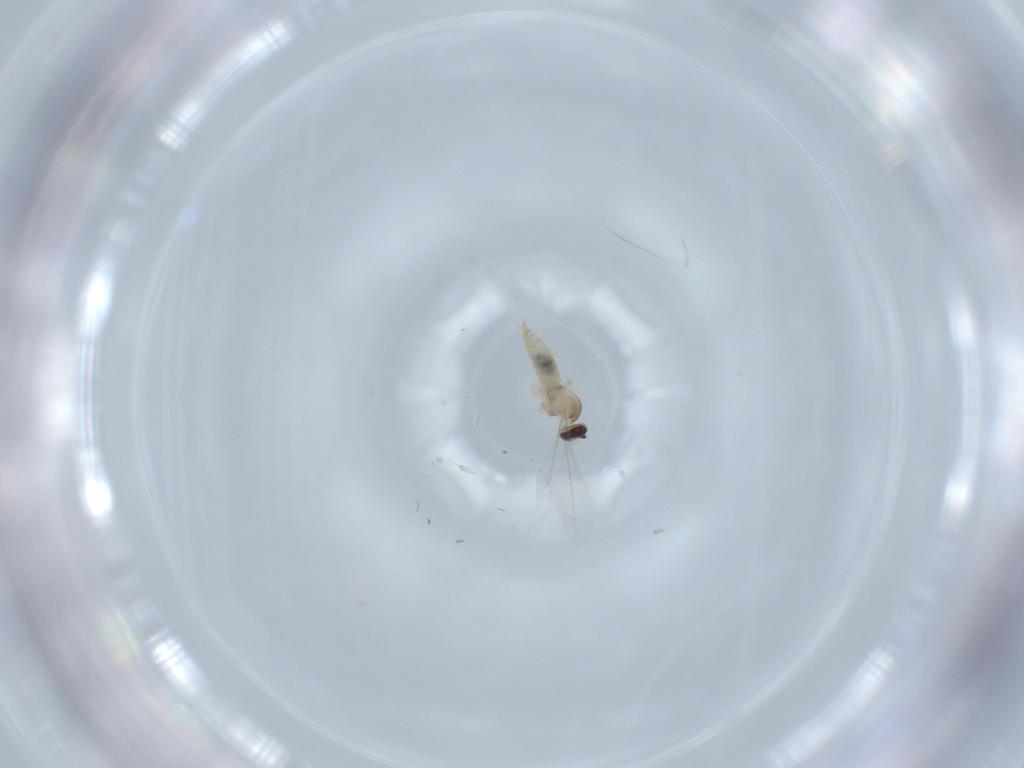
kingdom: Animalia
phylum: Arthropoda
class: Insecta
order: Diptera
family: Cecidomyiidae
